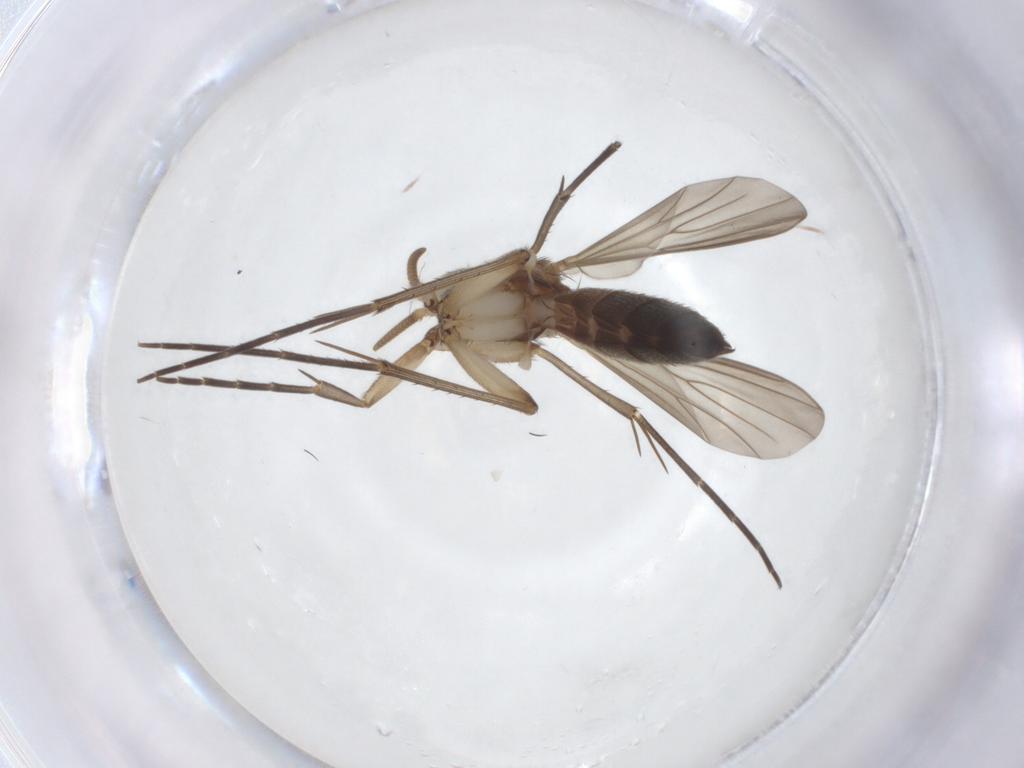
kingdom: Animalia
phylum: Arthropoda
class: Insecta
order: Diptera
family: Mycetophilidae
